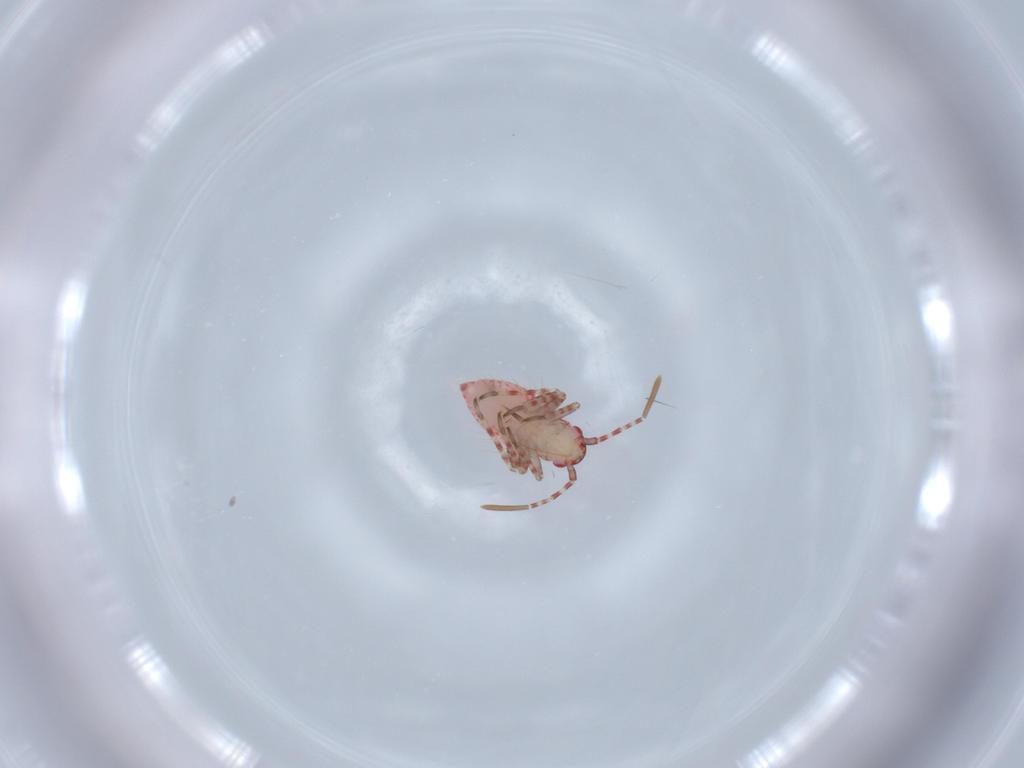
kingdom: Animalia
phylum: Arthropoda
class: Insecta
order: Hemiptera
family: Miridae
